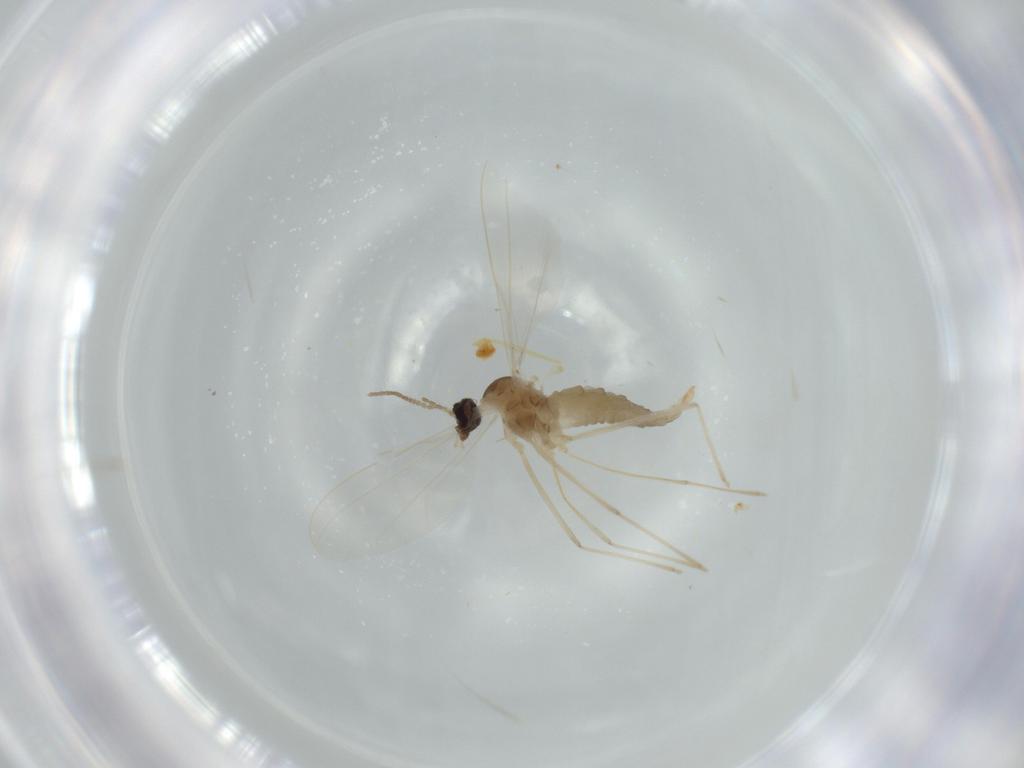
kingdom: Animalia
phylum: Arthropoda
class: Insecta
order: Diptera
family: Cecidomyiidae
